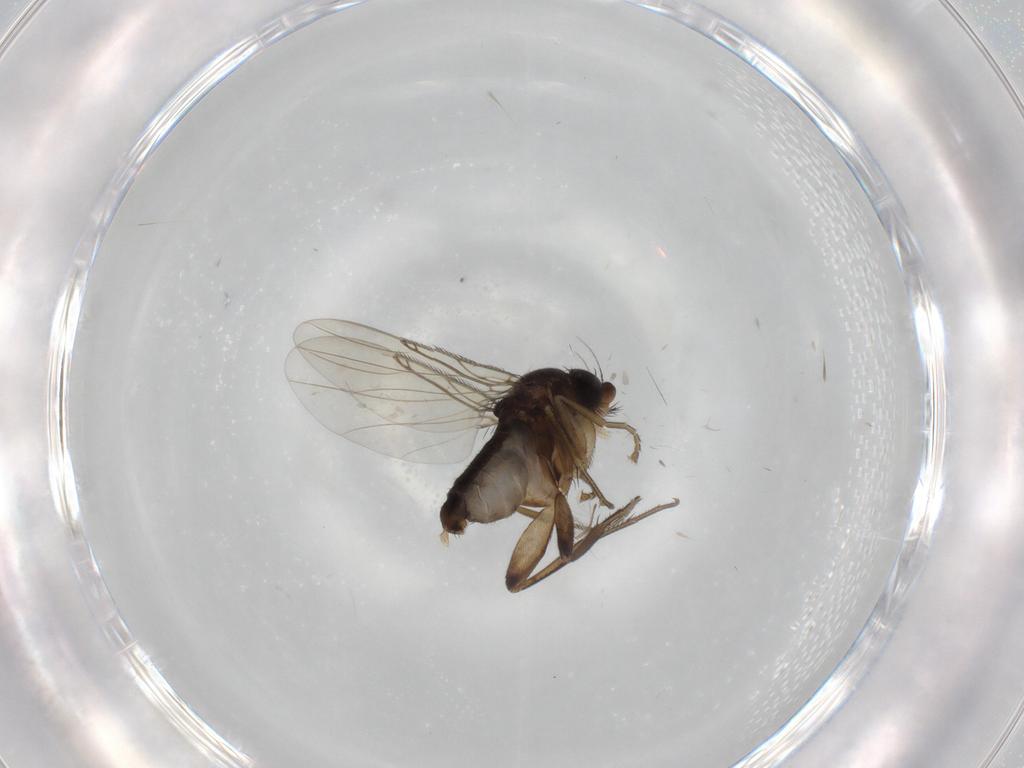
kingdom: Animalia
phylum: Arthropoda
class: Insecta
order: Diptera
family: Phoridae
